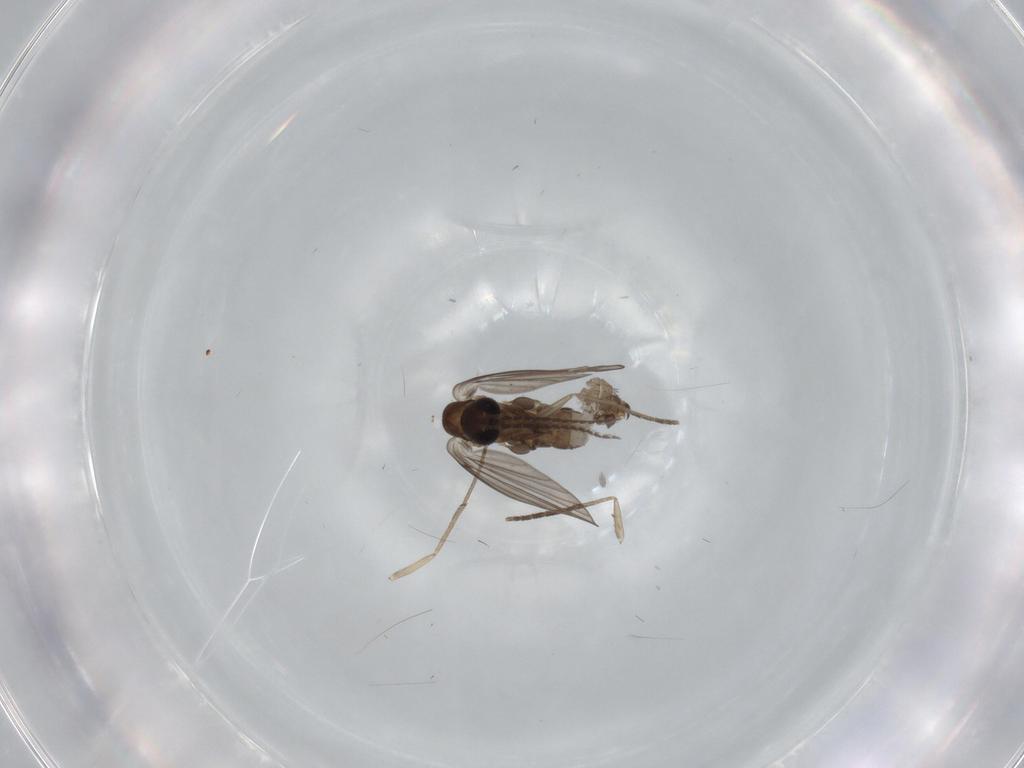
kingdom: Animalia
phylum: Arthropoda
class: Insecta
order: Diptera
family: Psychodidae
